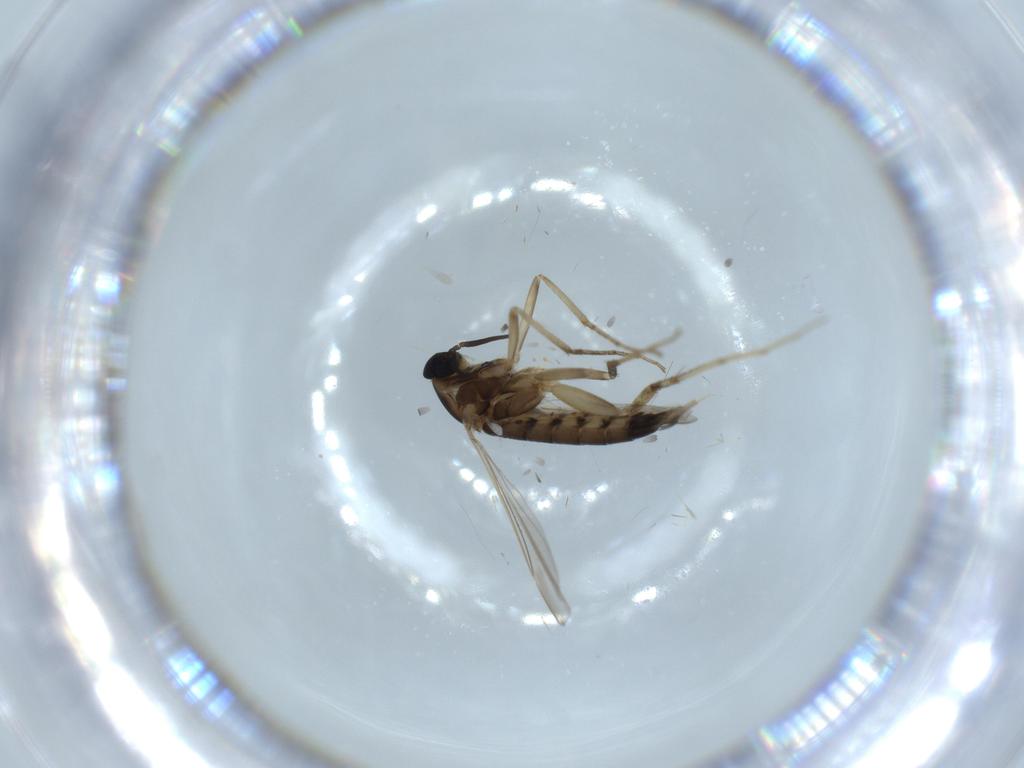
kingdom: Animalia
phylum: Arthropoda
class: Insecta
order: Diptera
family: Cecidomyiidae
